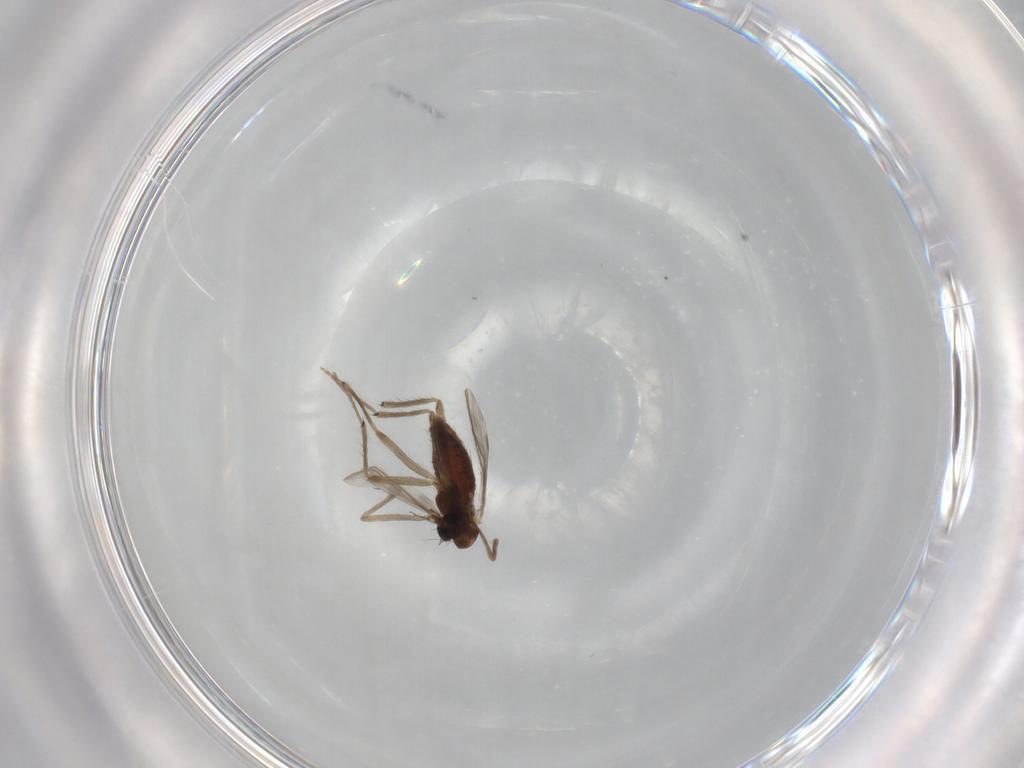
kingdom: Animalia
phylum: Arthropoda
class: Insecta
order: Diptera
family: Chironomidae
